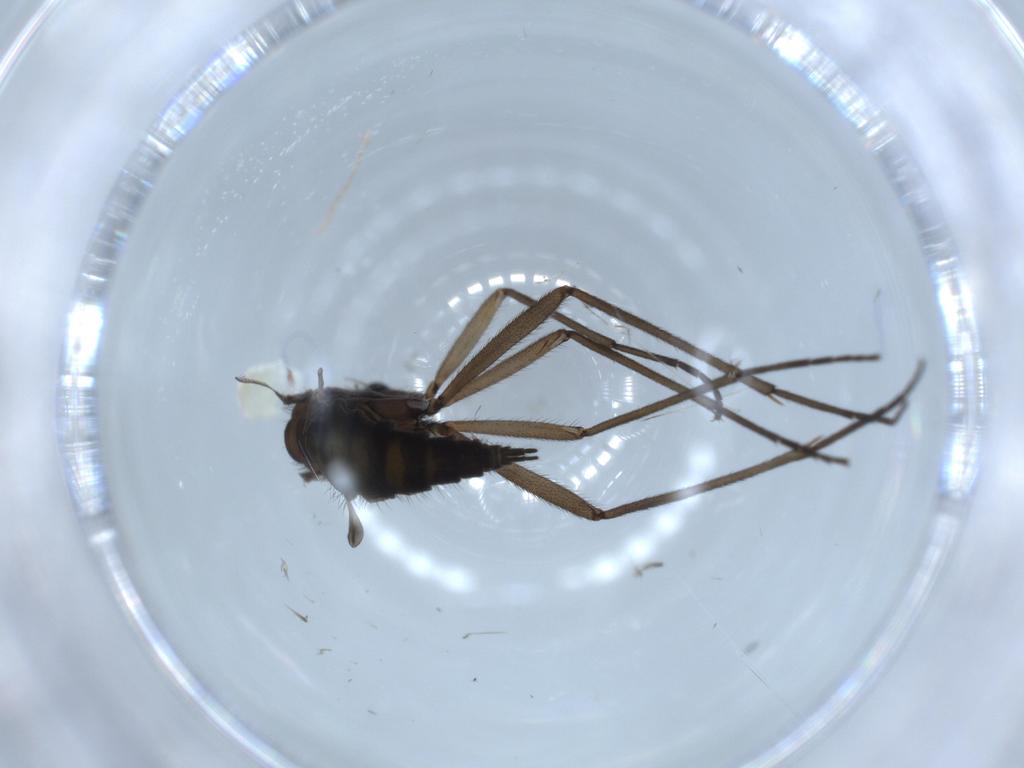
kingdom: Animalia
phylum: Arthropoda
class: Insecta
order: Diptera
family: Sciaridae
